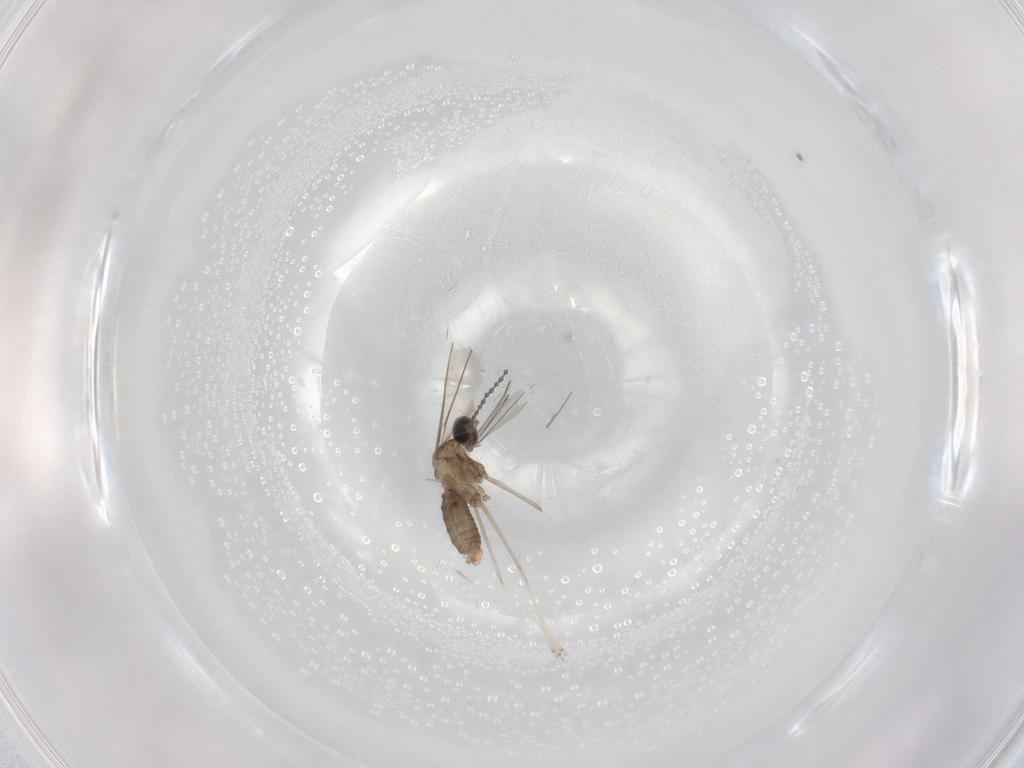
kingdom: Animalia
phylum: Arthropoda
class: Insecta
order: Diptera
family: Cecidomyiidae
